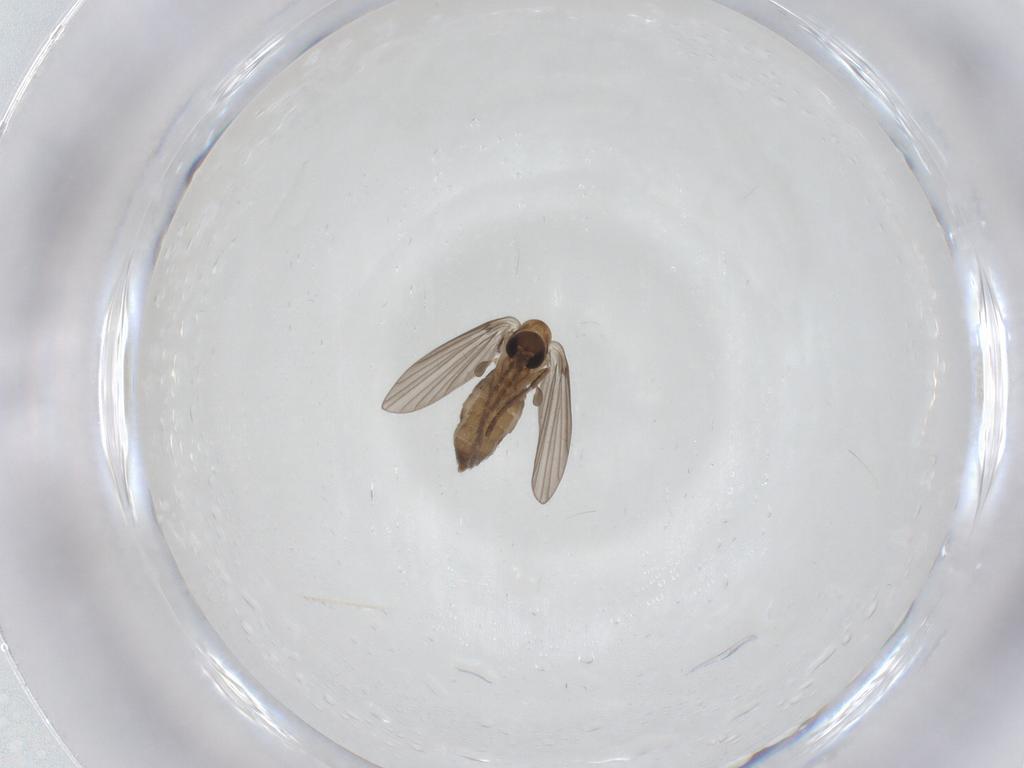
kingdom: Animalia
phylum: Arthropoda
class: Insecta
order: Diptera
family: Limoniidae
